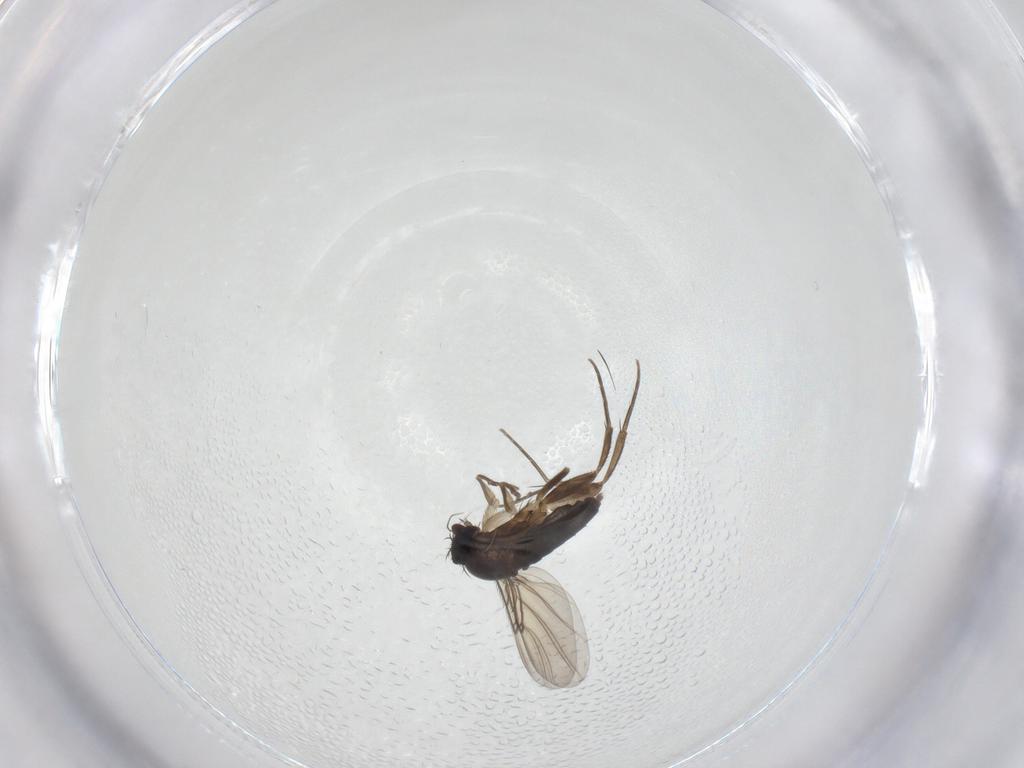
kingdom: Animalia
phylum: Arthropoda
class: Insecta
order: Diptera
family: Phoridae
